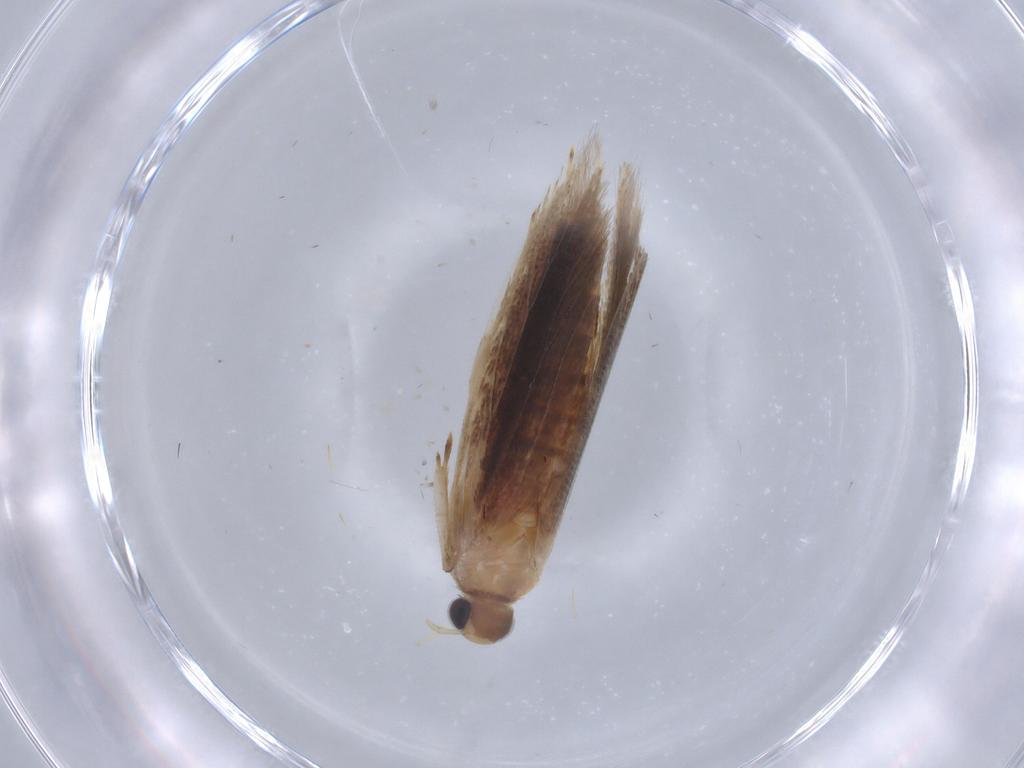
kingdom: Animalia
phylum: Arthropoda
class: Insecta
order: Lepidoptera
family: Gelechiidae
